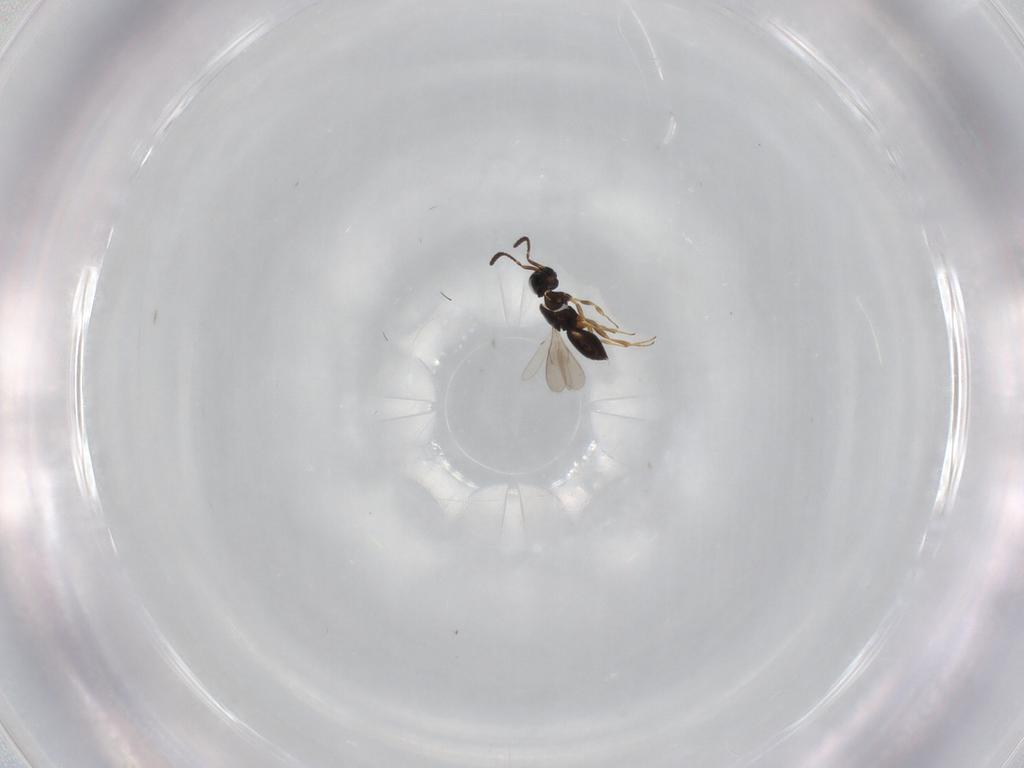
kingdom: Animalia
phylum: Arthropoda
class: Insecta
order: Hymenoptera
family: Scelionidae
